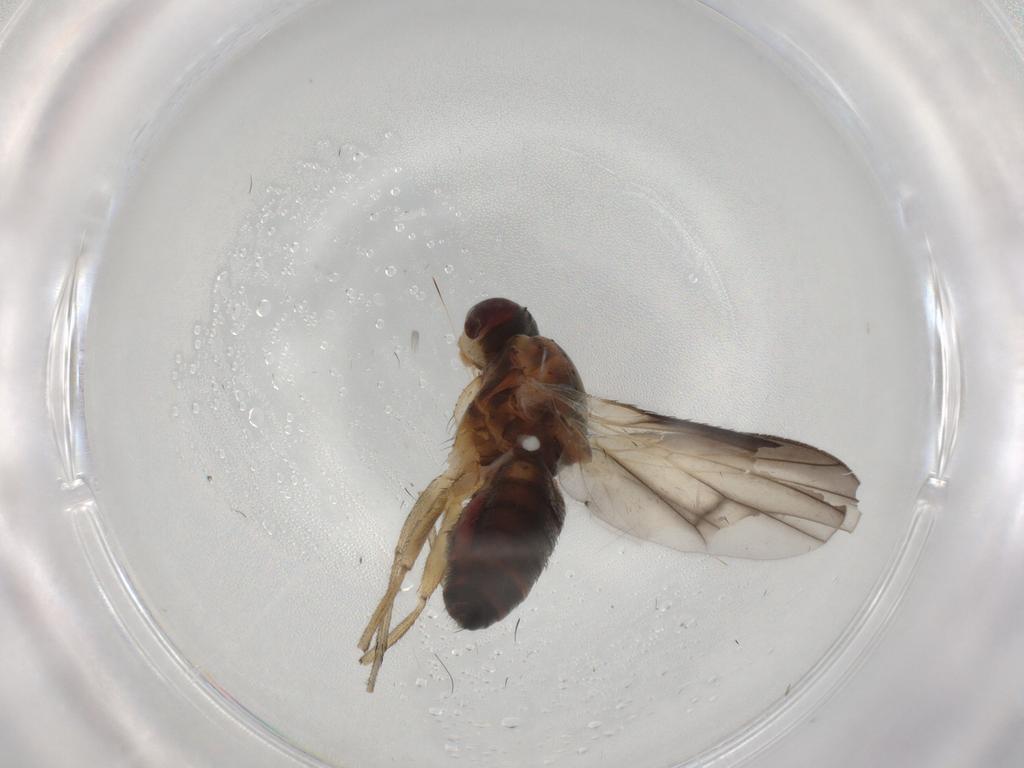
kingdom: Animalia
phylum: Arthropoda
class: Insecta
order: Diptera
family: Heleomyzidae
